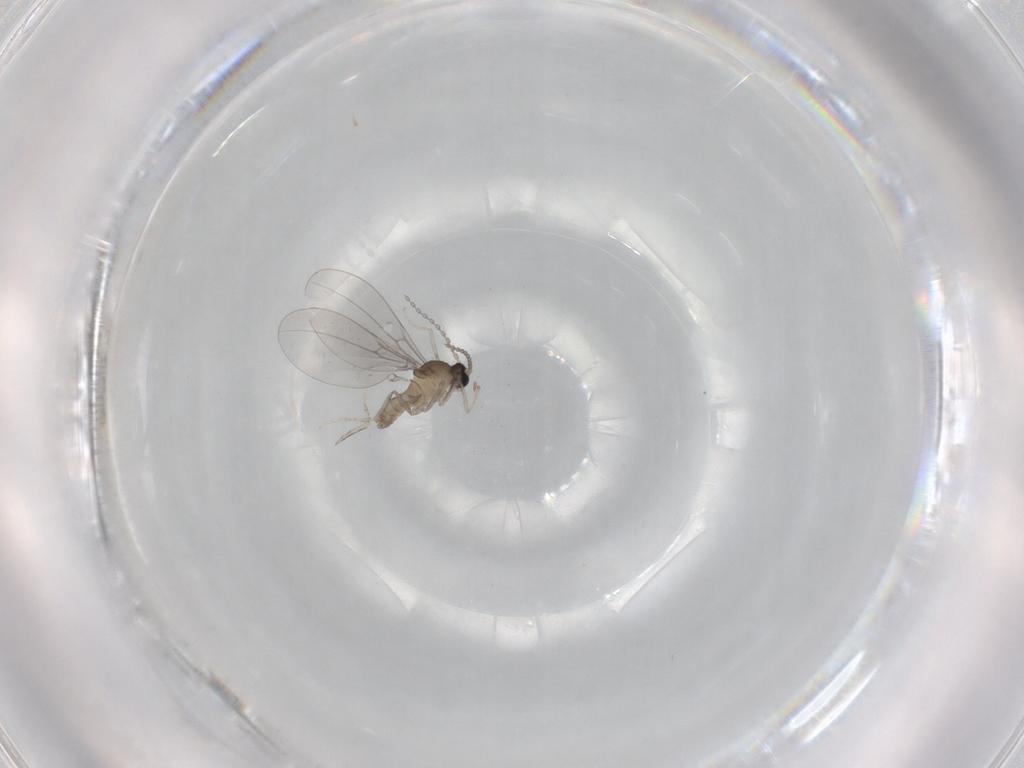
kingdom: Animalia
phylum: Arthropoda
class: Insecta
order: Diptera
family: Cecidomyiidae
